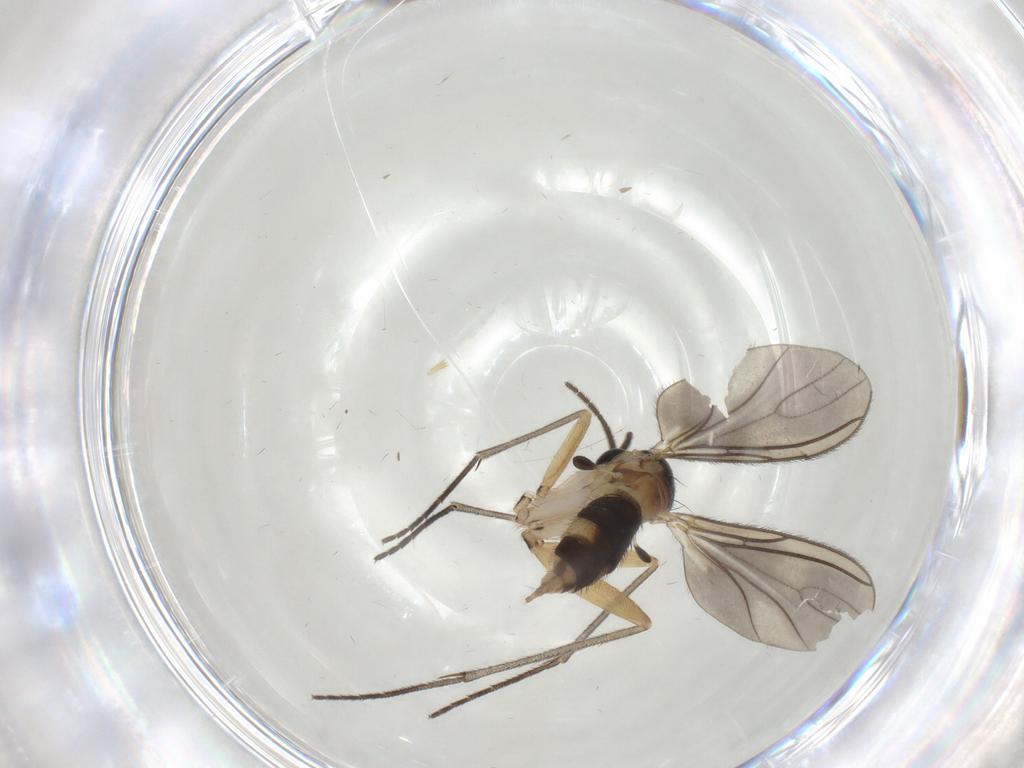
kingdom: Animalia
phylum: Arthropoda
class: Insecta
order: Diptera
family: Sciaridae
